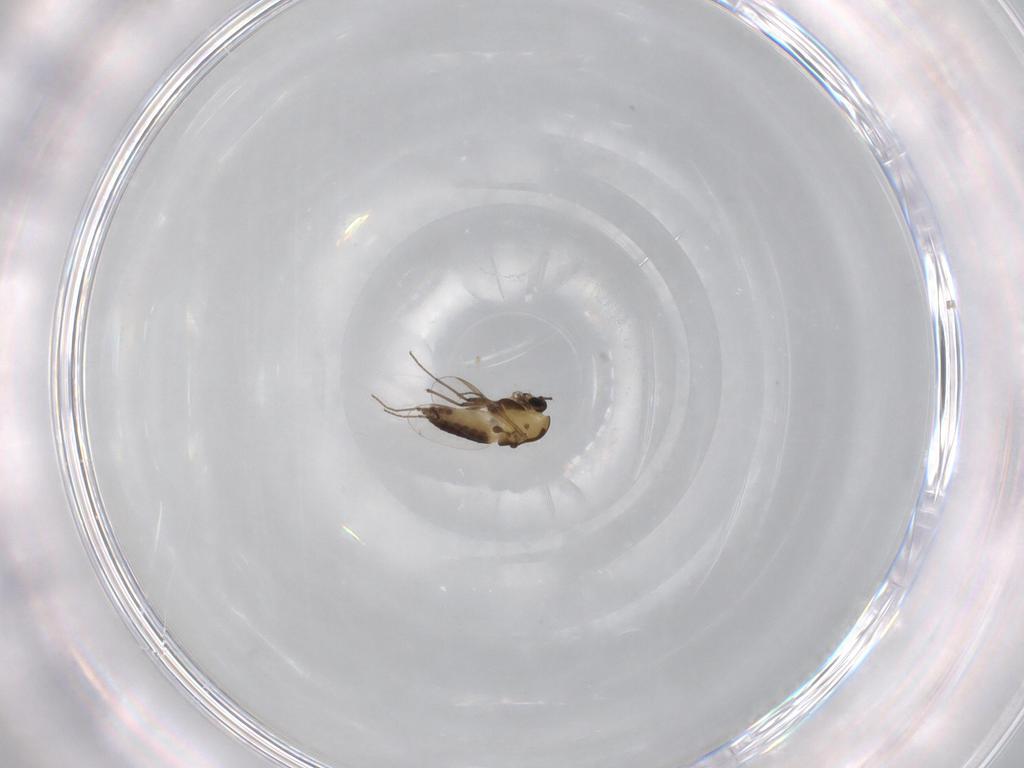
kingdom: Animalia
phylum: Arthropoda
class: Insecta
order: Diptera
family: Chironomidae
